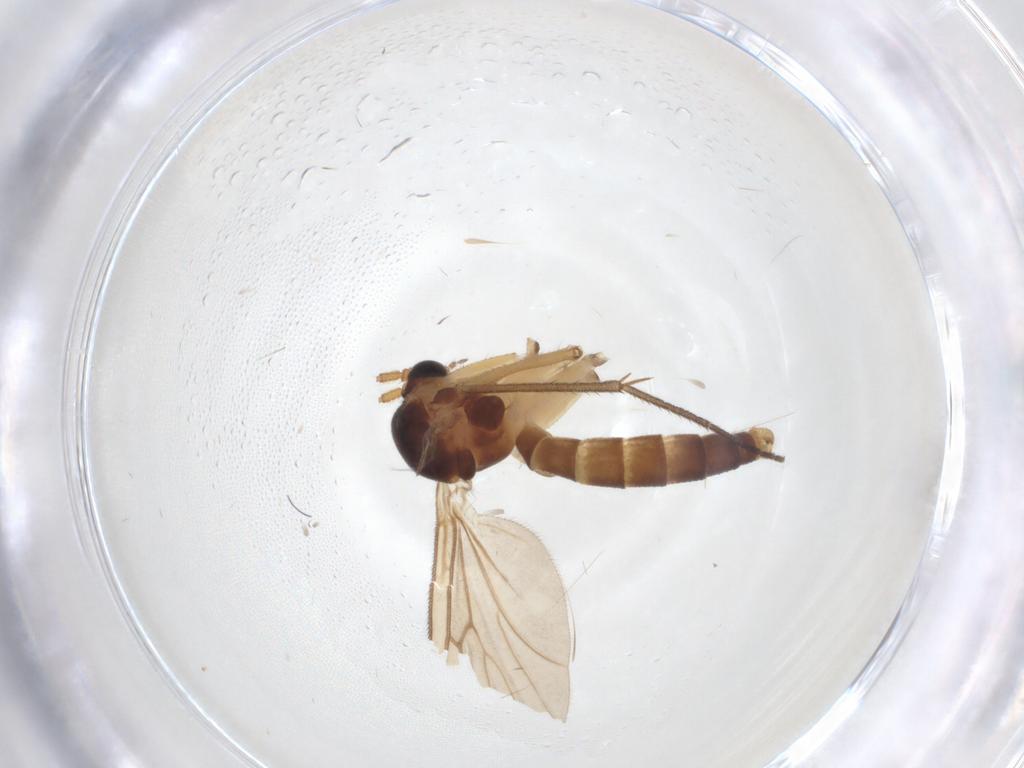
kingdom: Animalia
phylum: Arthropoda
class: Insecta
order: Diptera
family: Mycetophilidae
